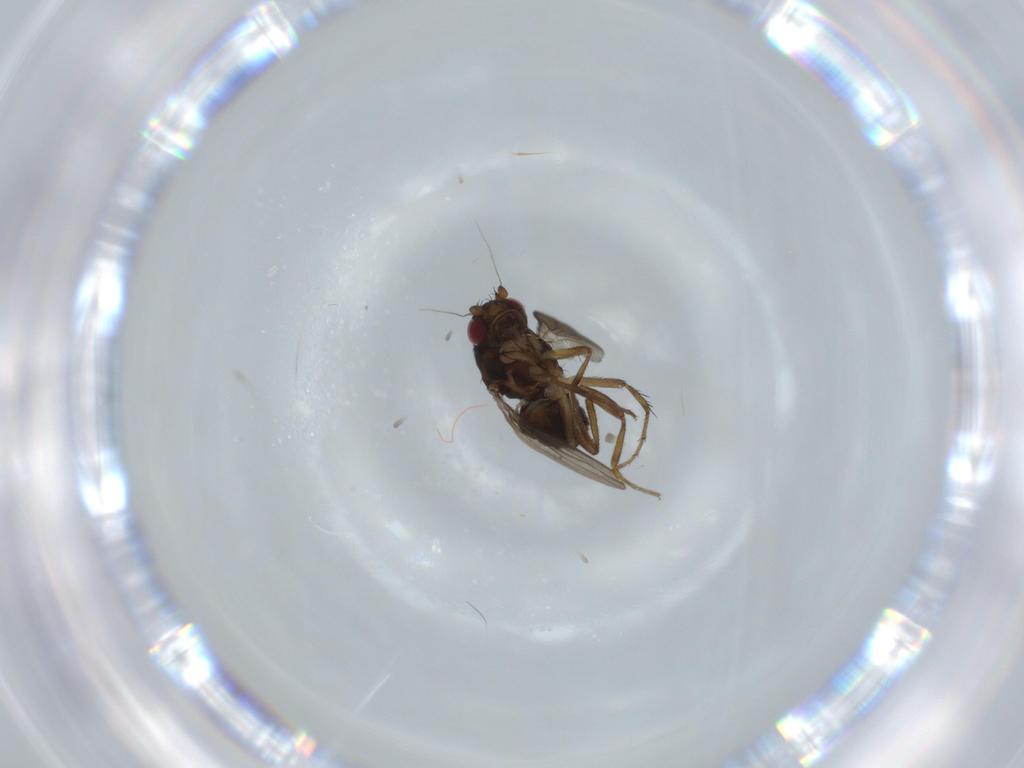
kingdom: Animalia
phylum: Arthropoda
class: Insecta
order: Diptera
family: Sphaeroceridae
